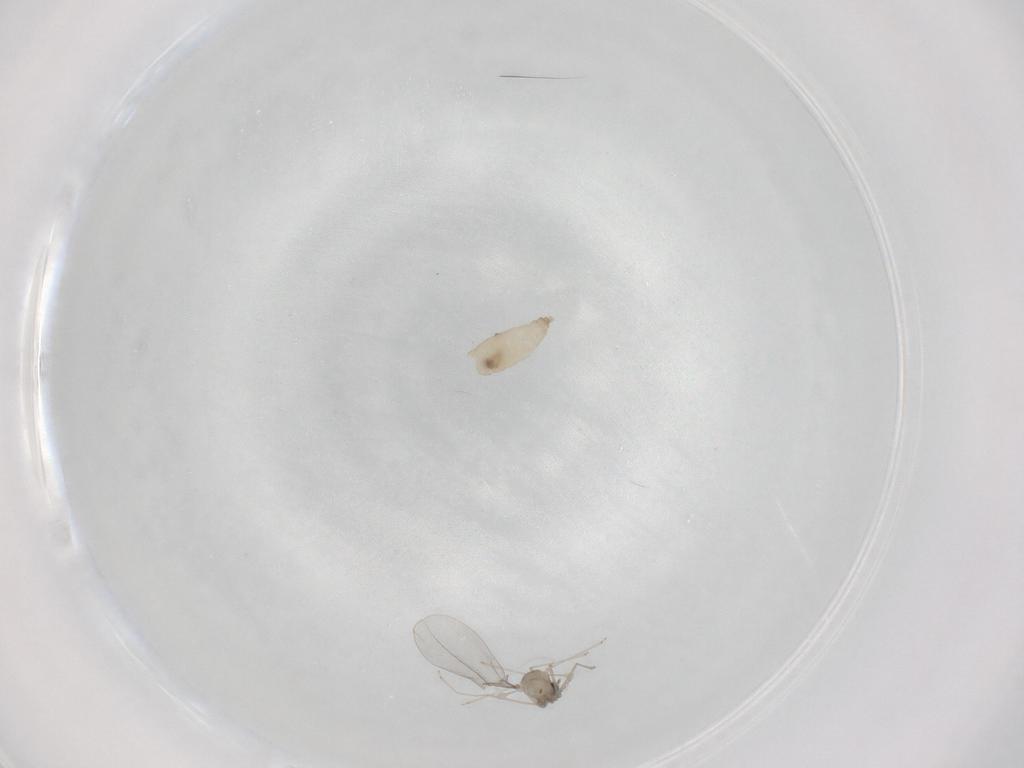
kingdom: Animalia
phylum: Arthropoda
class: Insecta
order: Diptera
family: Cecidomyiidae
